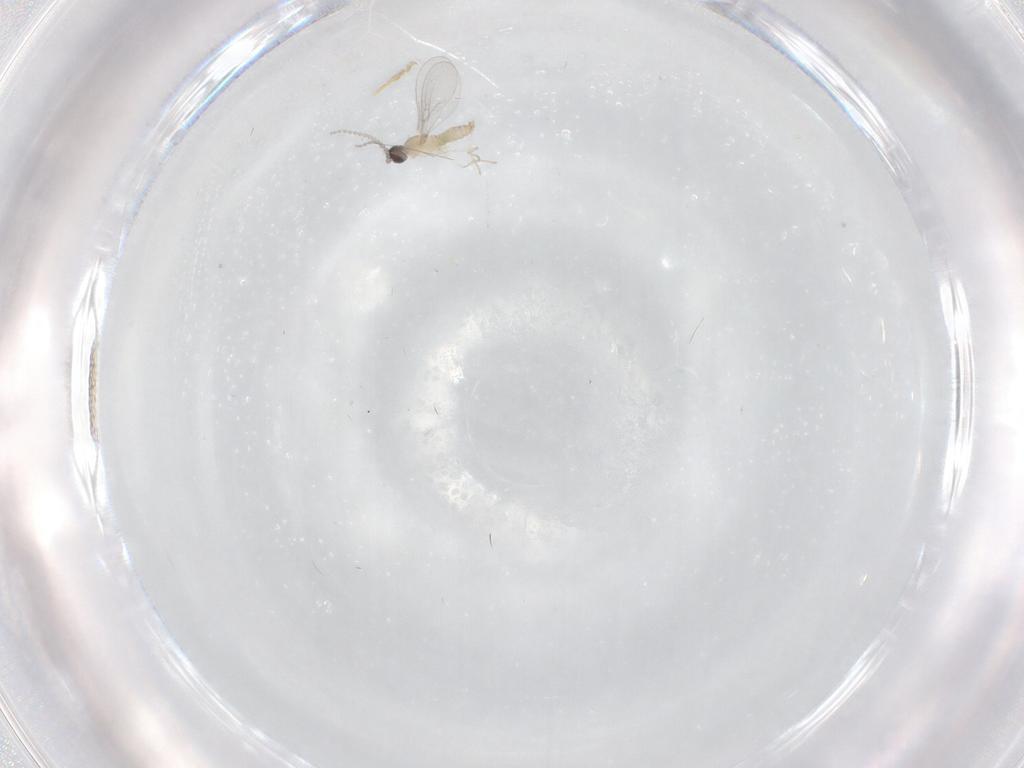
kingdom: Animalia
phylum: Arthropoda
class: Insecta
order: Diptera
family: Cecidomyiidae
